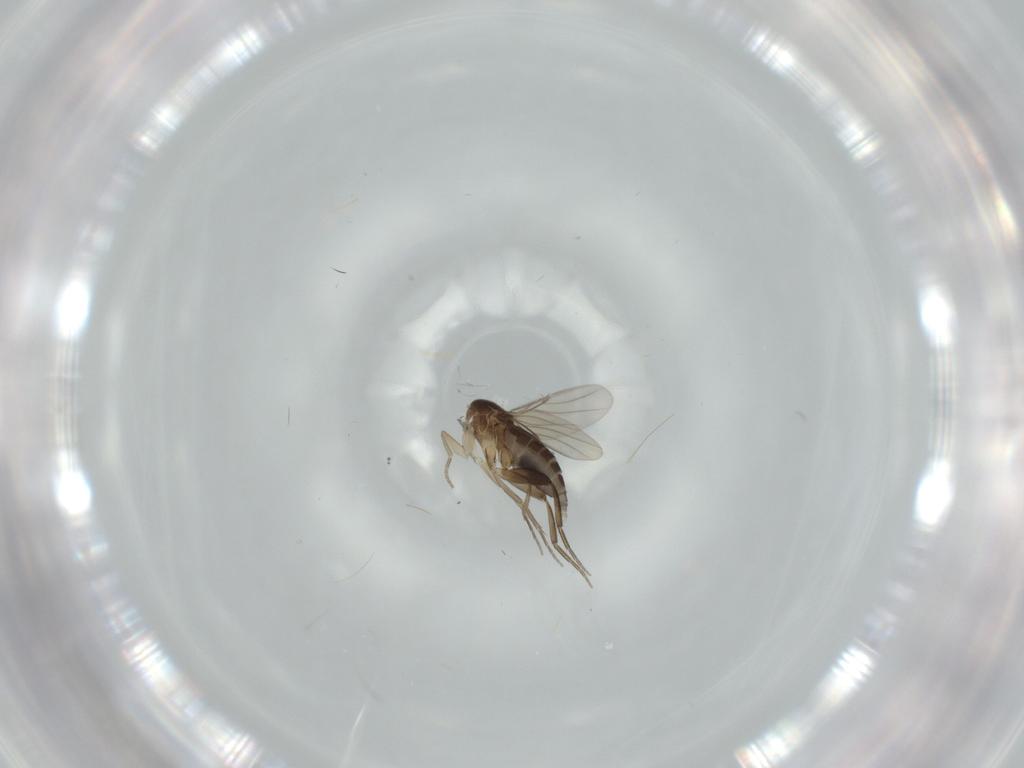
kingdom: Animalia
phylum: Arthropoda
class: Insecta
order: Diptera
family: Phoridae
